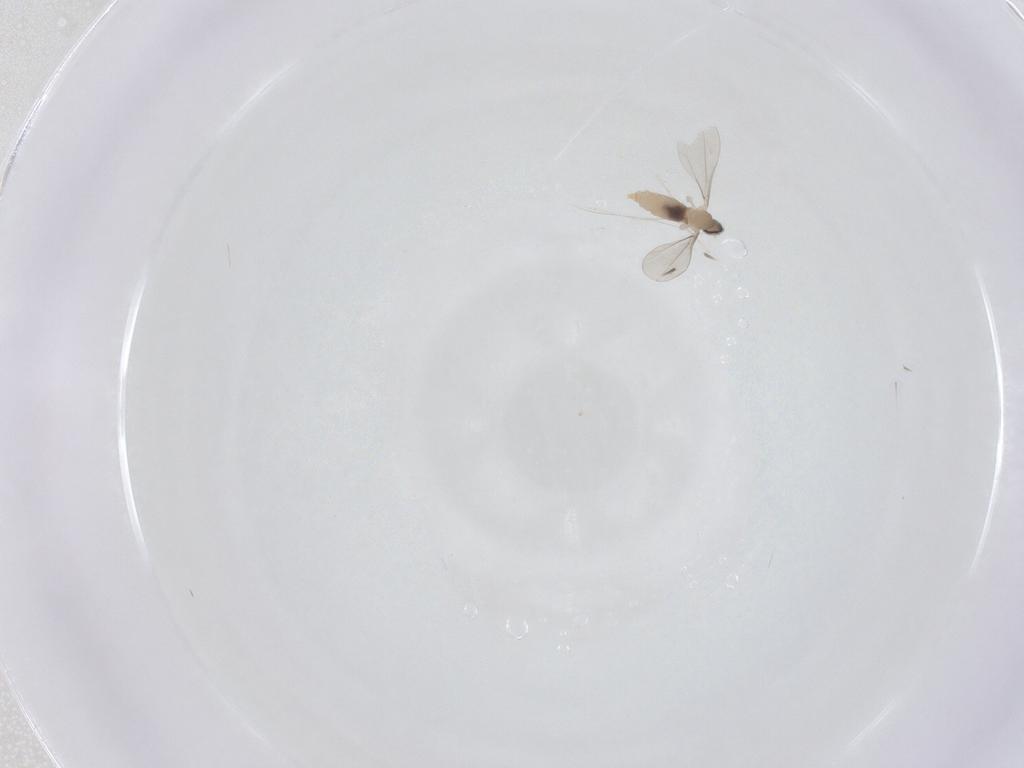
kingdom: Animalia
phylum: Arthropoda
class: Insecta
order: Diptera
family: Cecidomyiidae
